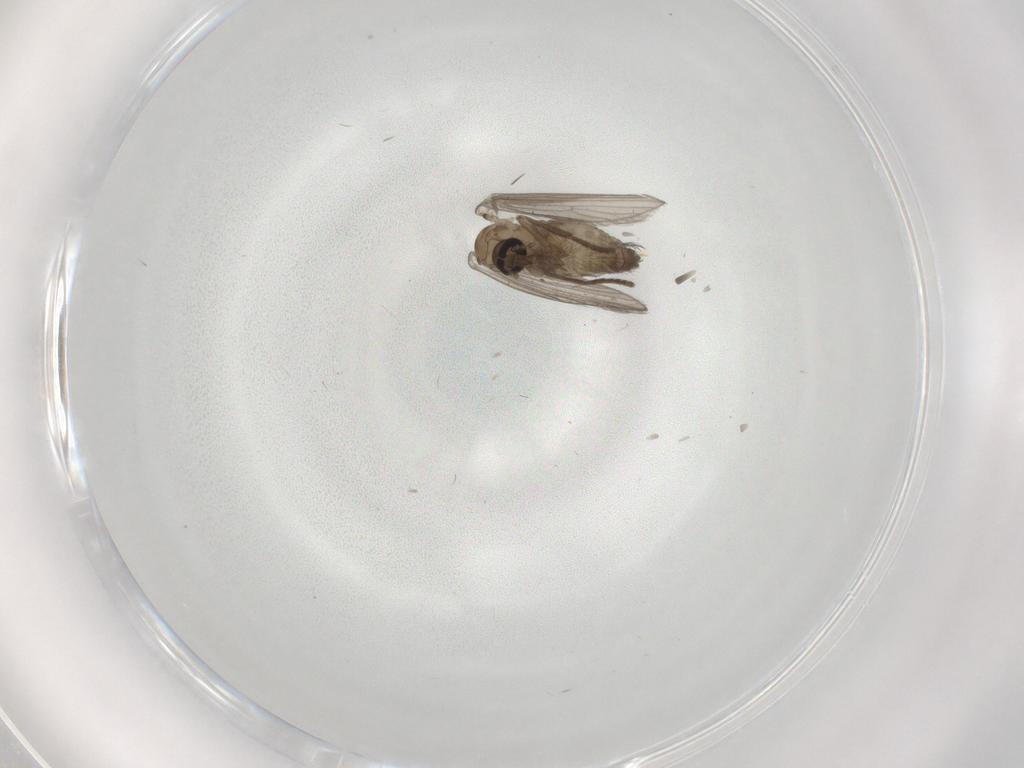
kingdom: Animalia
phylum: Arthropoda
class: Insecta
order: Diptera
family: Psychodidae
